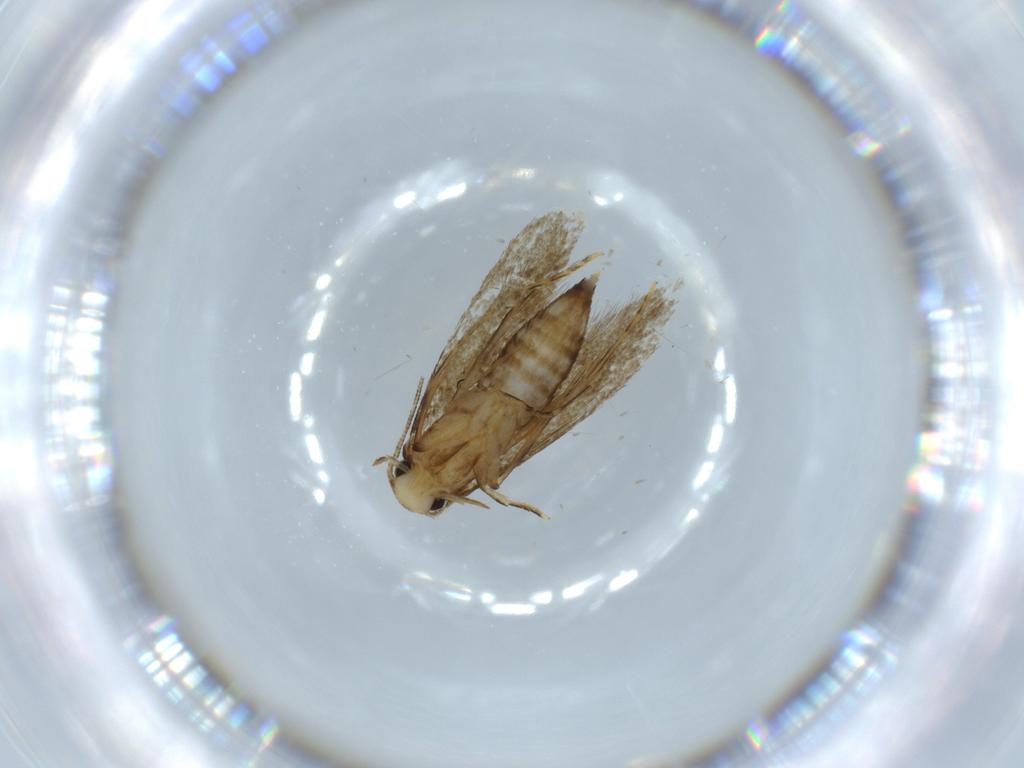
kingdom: Animalia
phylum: Arthropoda
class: Insecta
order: Lepidoptera
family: Tineidae
